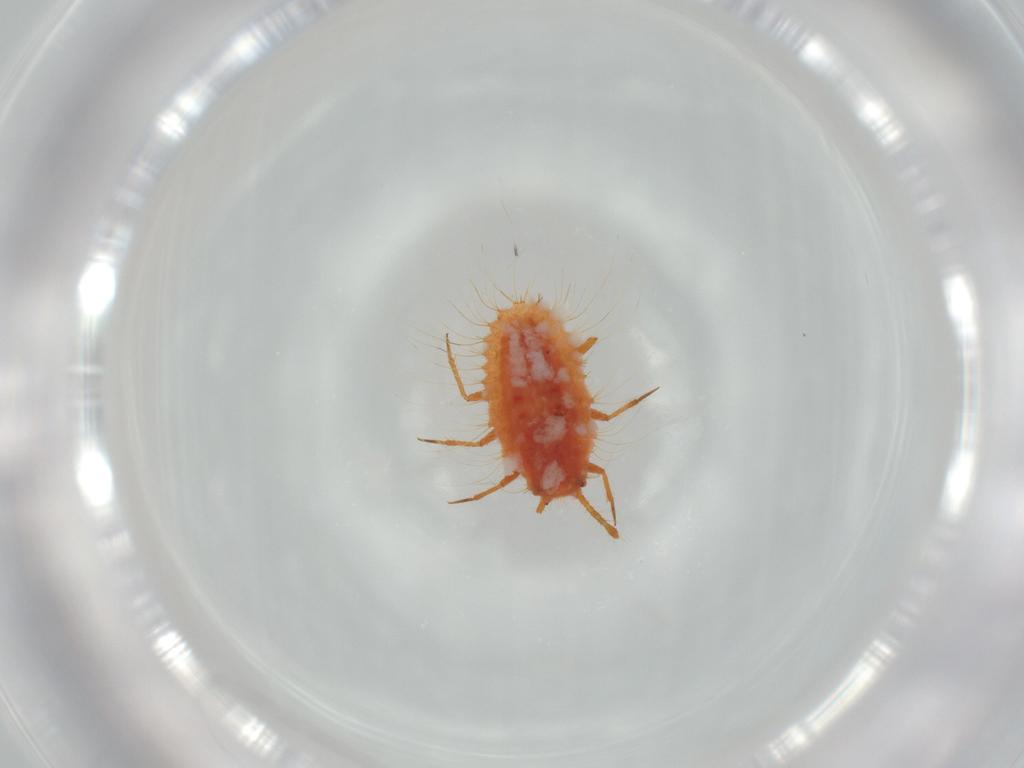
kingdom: Animalia
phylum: Arthropoda
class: Insecta
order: Hemiptera
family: Coccoidea_incertae_sedis
